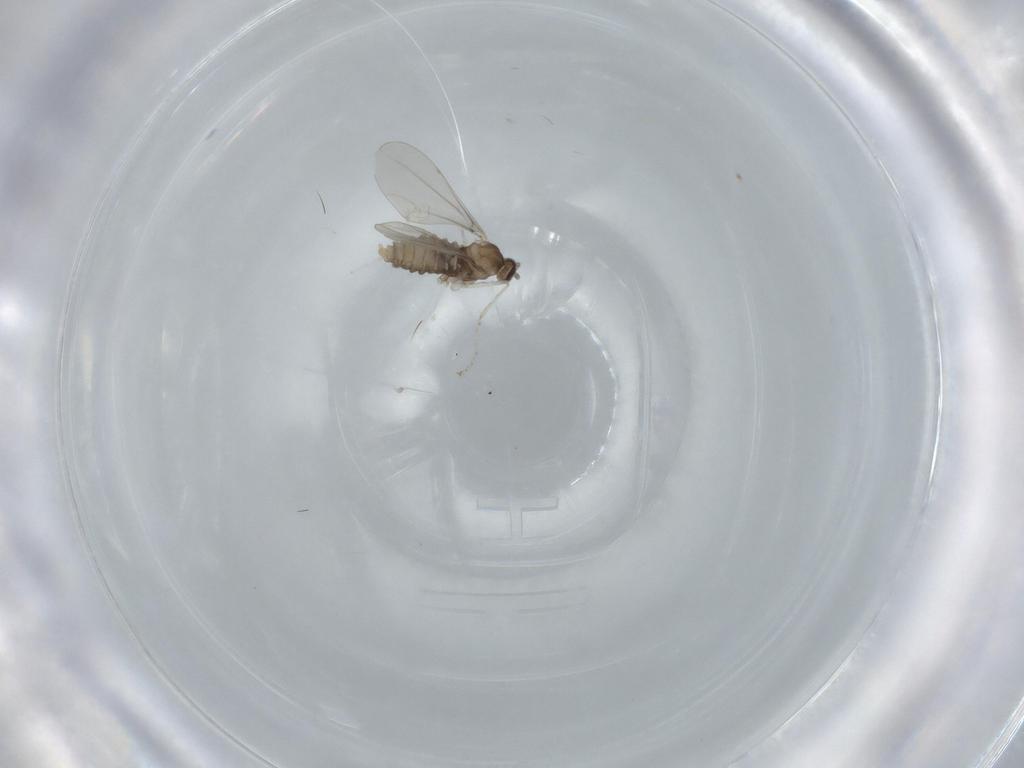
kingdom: Animalia
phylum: Arthropoda
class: Insecta
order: Diptera
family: Cecidomyiidae
